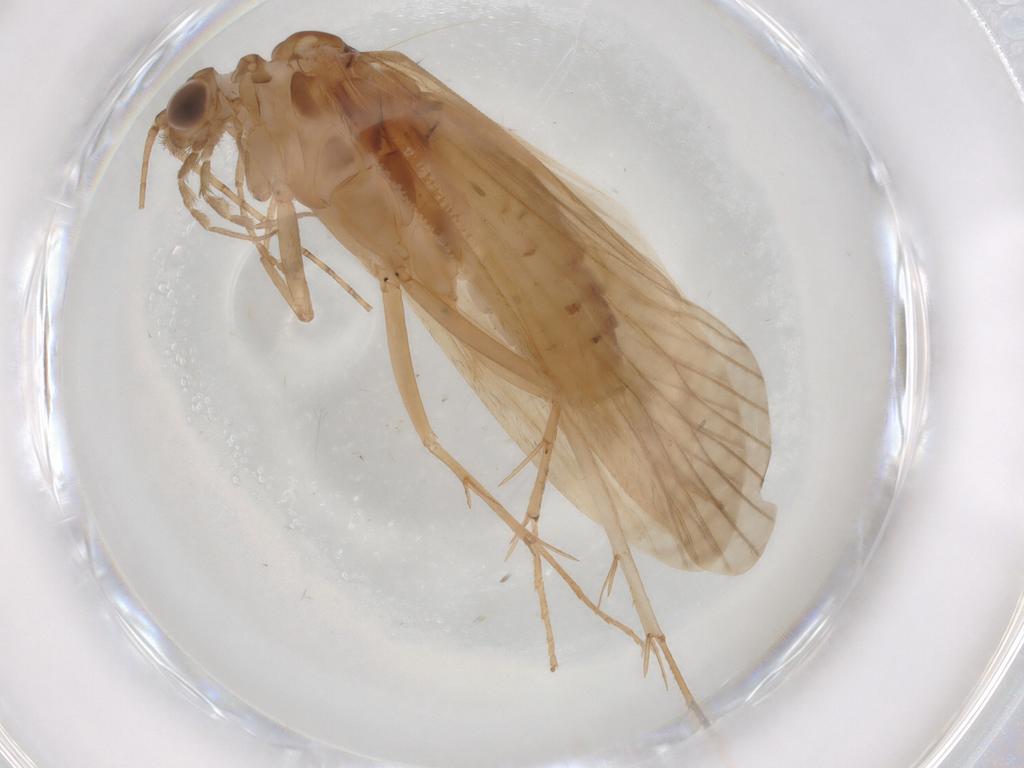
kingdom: Animalia
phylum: Arthropoda
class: Insecta
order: Trichoptera
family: Hydropsychidae
